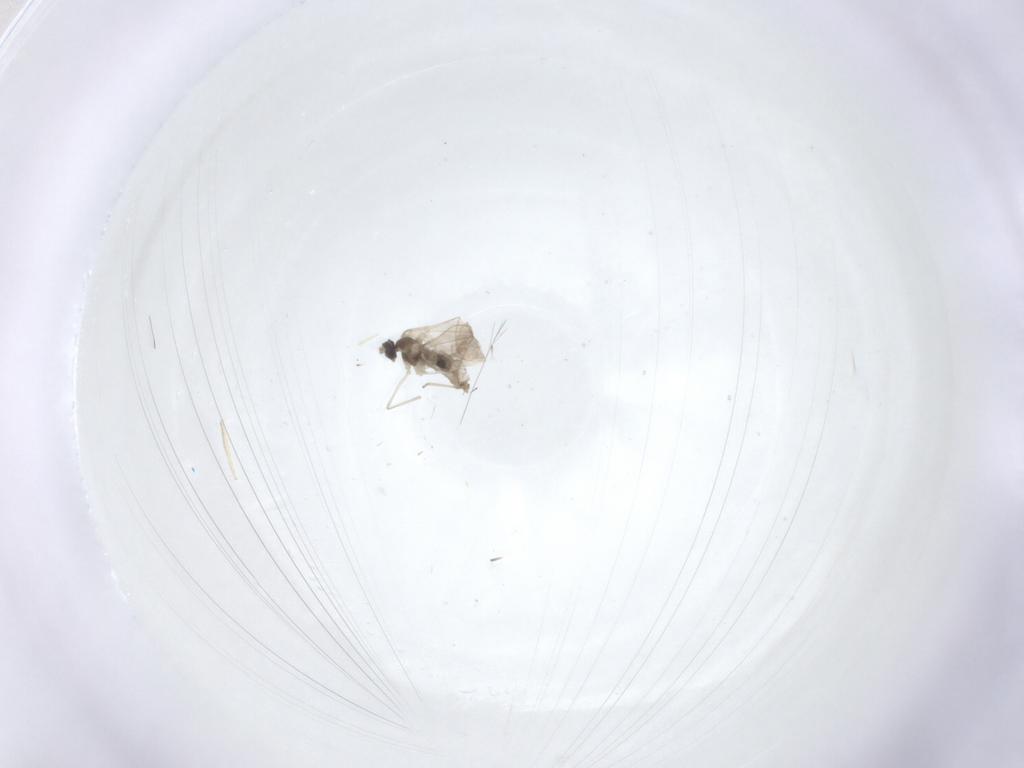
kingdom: Animalia
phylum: Arthropoda
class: Insecta
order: Diptera
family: Cecidomyiidae
